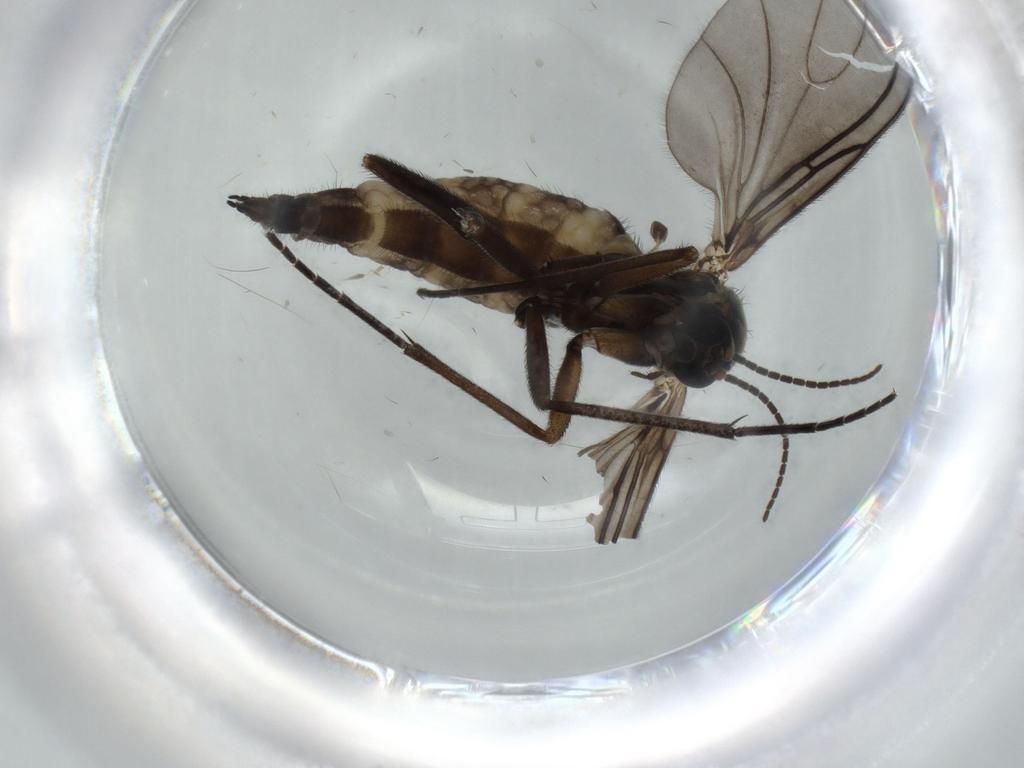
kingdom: Animalia
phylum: Arthropoda
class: Insecta
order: Diptera
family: Sciaridae
